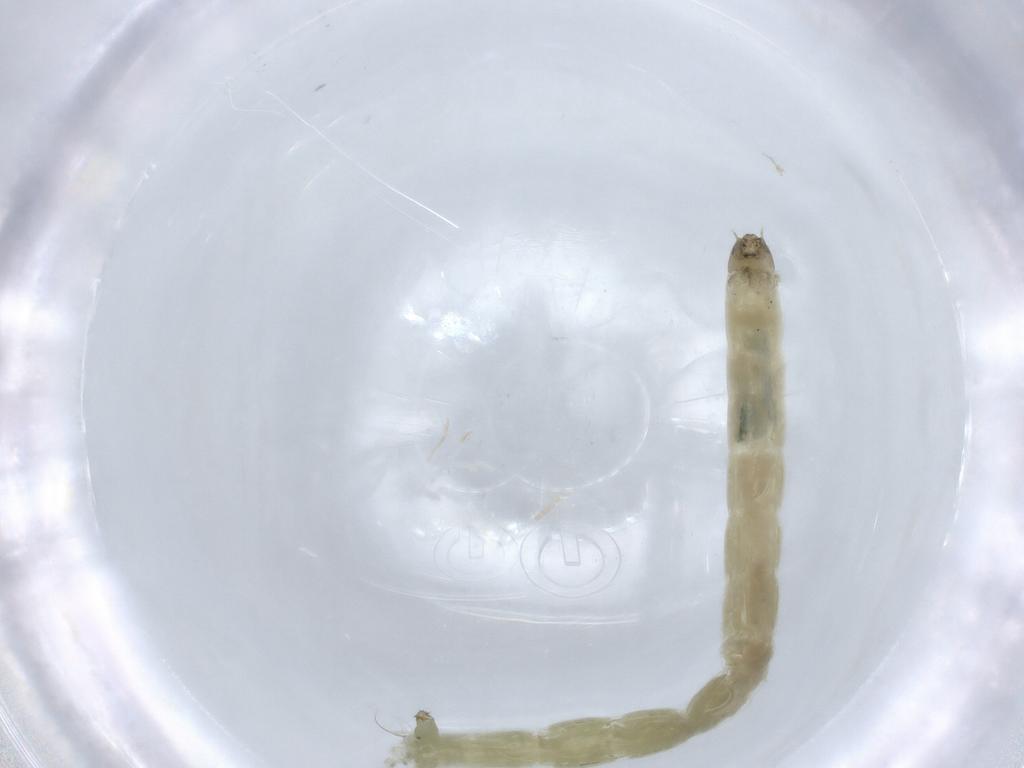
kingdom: Animalia
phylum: Arthropoda
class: Insecta
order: Diptera
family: Chironomidae
